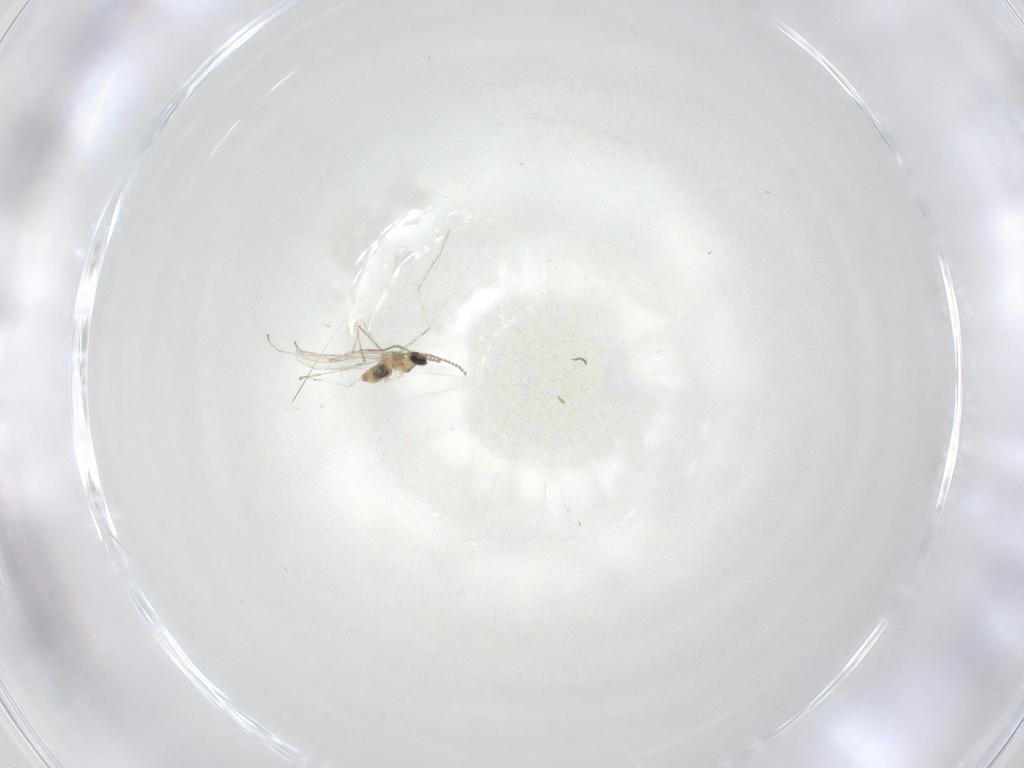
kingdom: Animalia
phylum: Arthropoda
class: Insecta
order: Diptera
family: Cecidomyiidae
